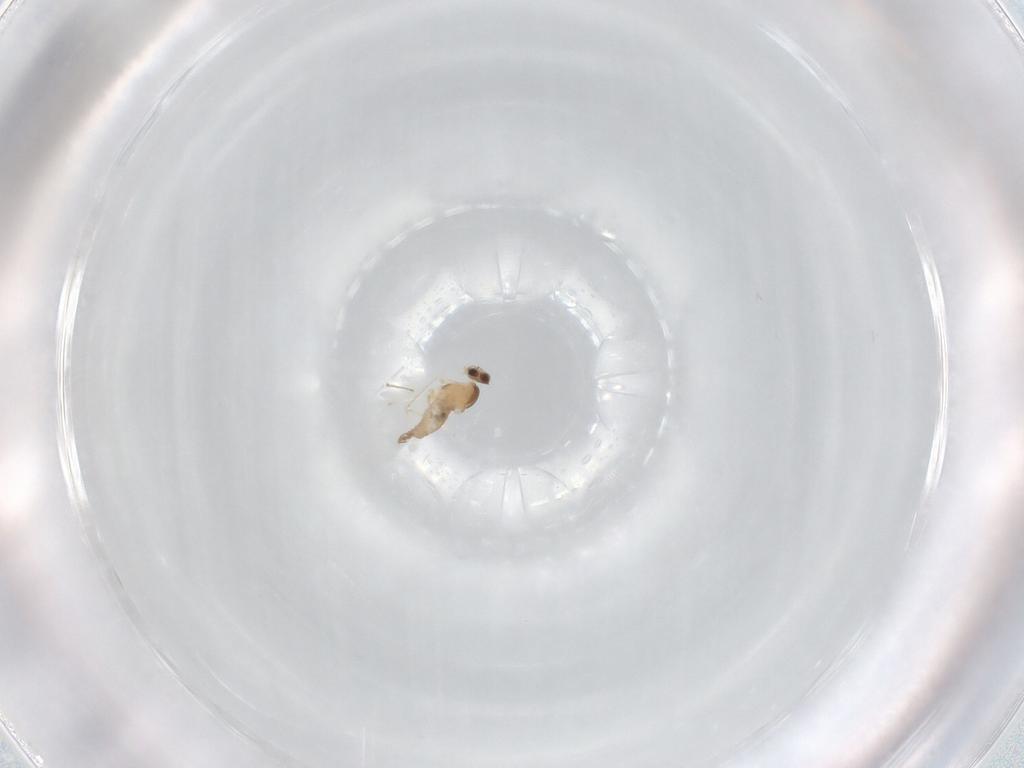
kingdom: Animalia
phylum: Arthropoda
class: Insecta
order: Diptera
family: Cecidomyiidae
